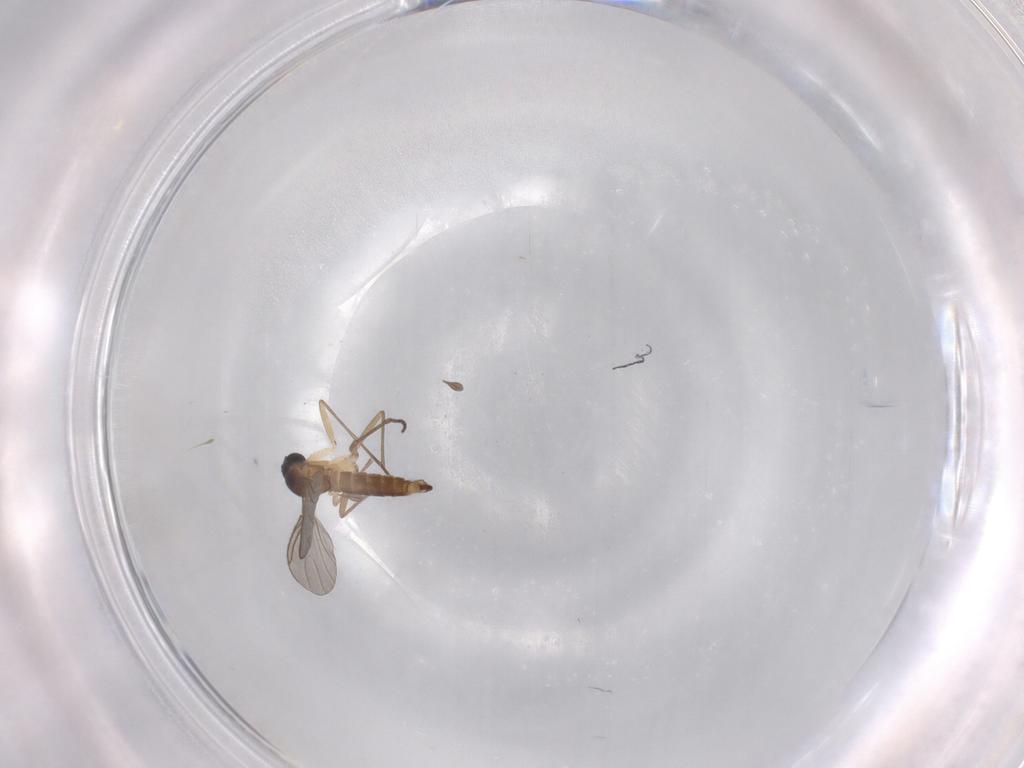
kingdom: Animalia
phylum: Arthropoda
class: Insecta
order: Diptera
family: Sciaridae
